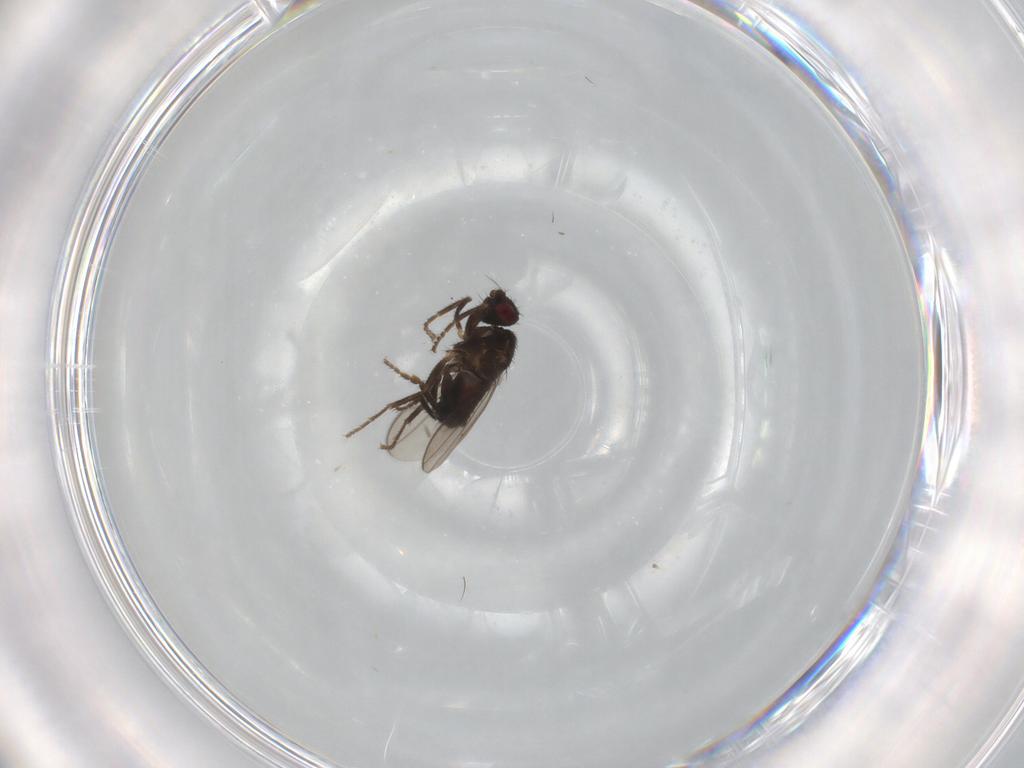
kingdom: Animalia
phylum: Arthropoda
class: Insecta
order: Diptera
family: Sphaeroceridae
